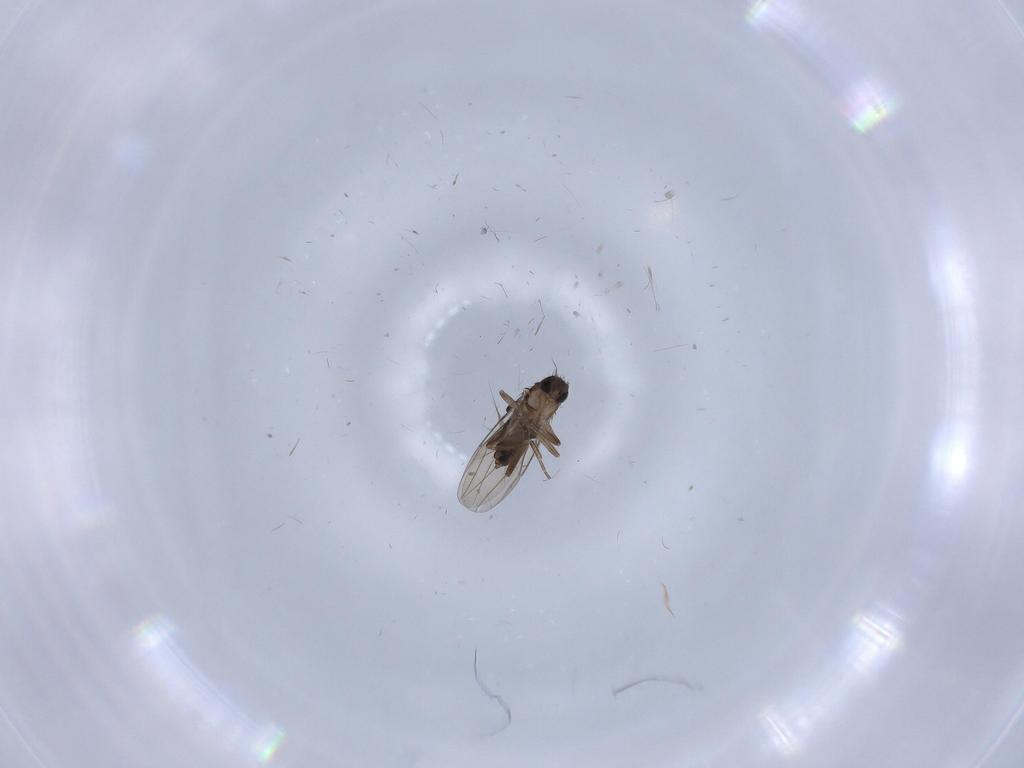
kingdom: Animalia
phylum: Arthropoda
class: Insecta
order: Diptera
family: Phoridae
